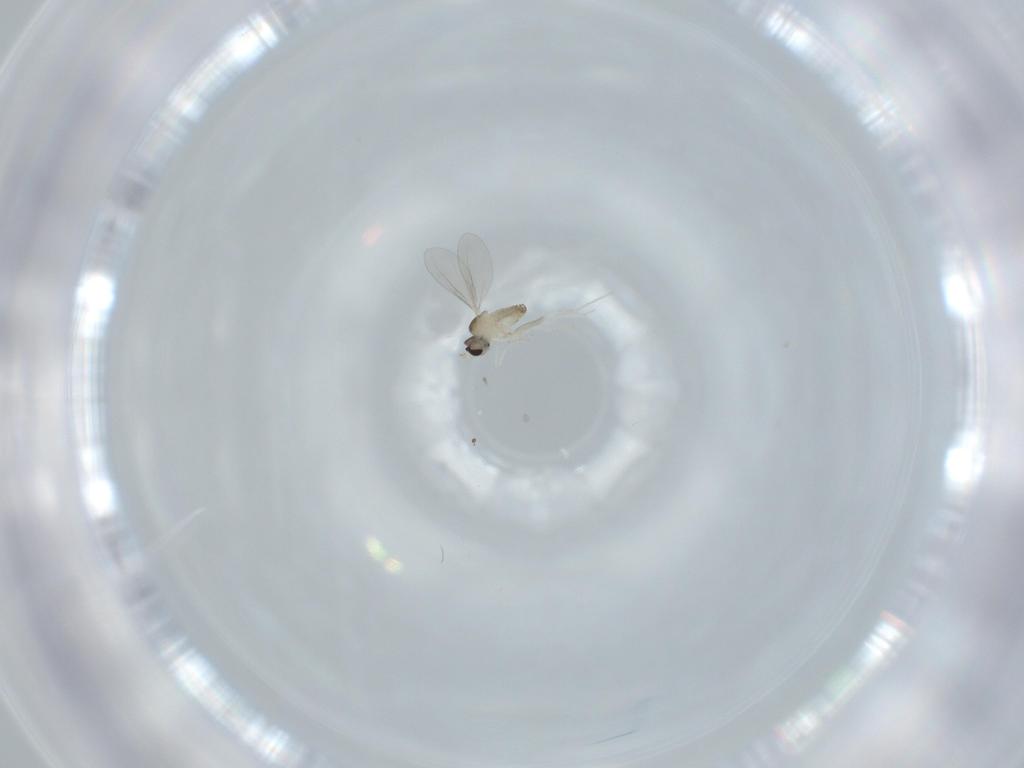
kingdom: Animalia
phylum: Arthropoda
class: Insecta
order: Diptera
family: Cecidomyiidae
